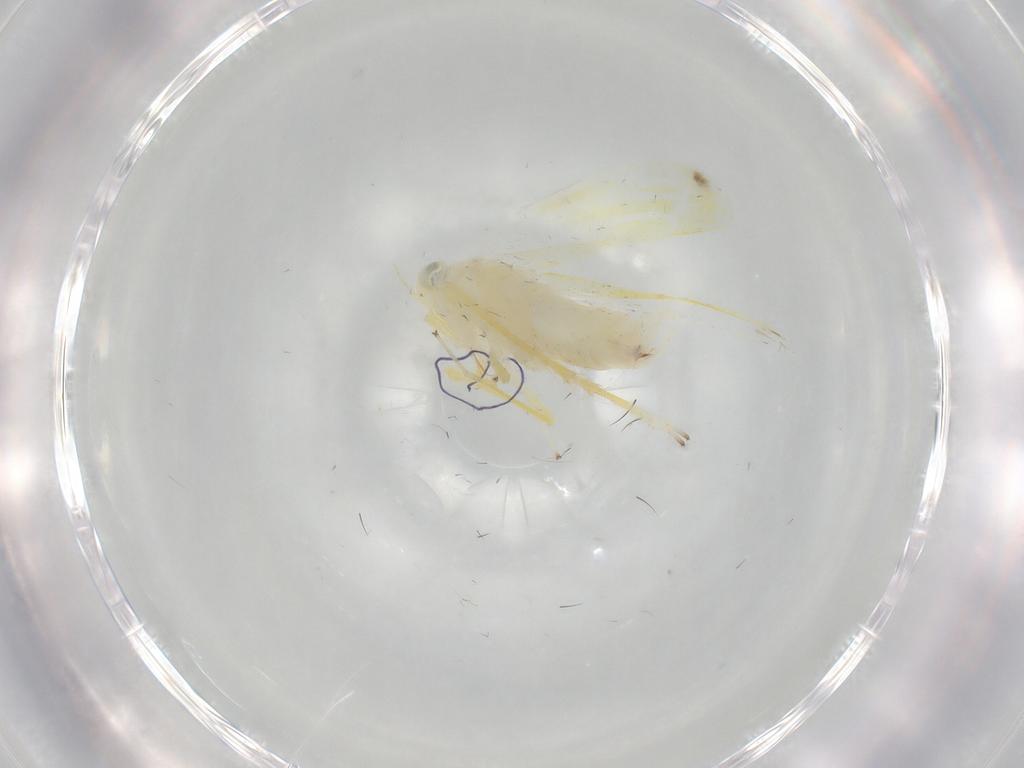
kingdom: Animalia
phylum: Arthropoda
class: Insecta
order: Hemiptera
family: Cicadellidae
